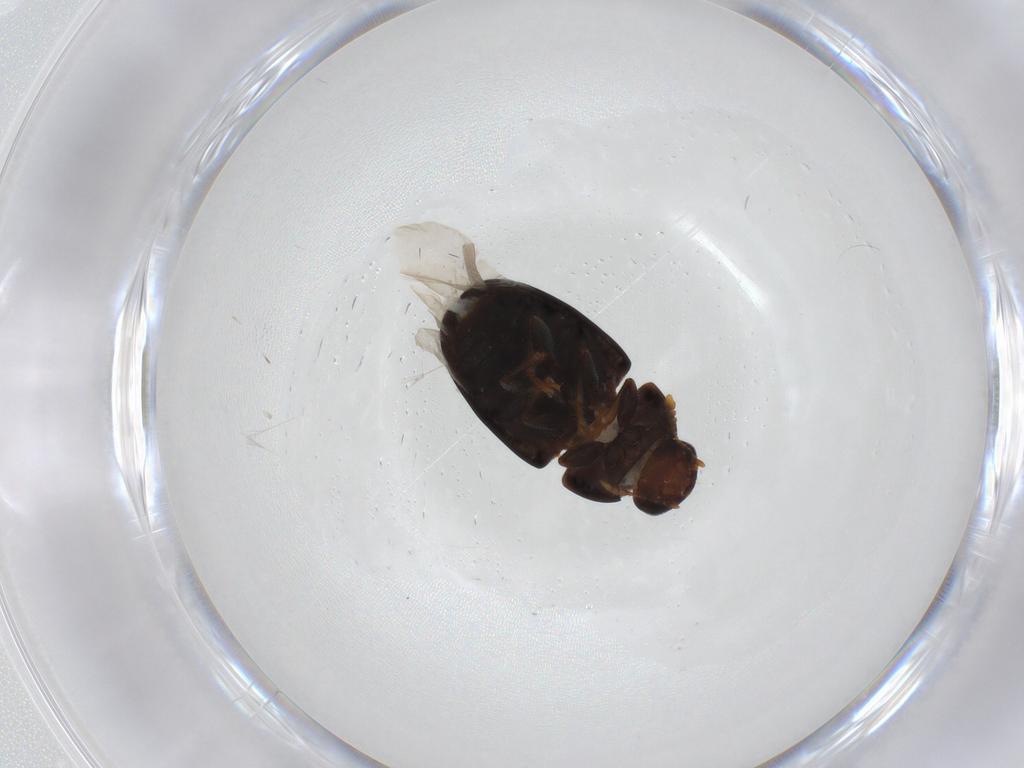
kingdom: Animalia
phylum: Arthropoda
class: Insecta
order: Coleoptera
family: Phalacridae
